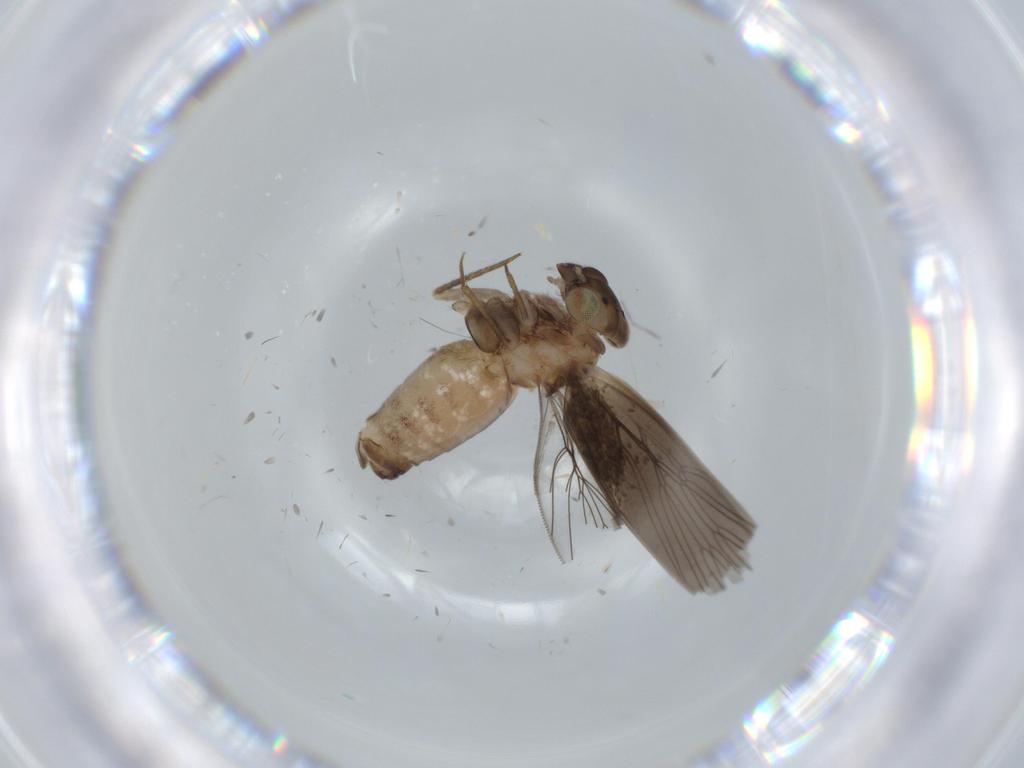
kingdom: Animalia
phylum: Arthropoda
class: Insecta
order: Psocodea
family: Lepidopsocidae
